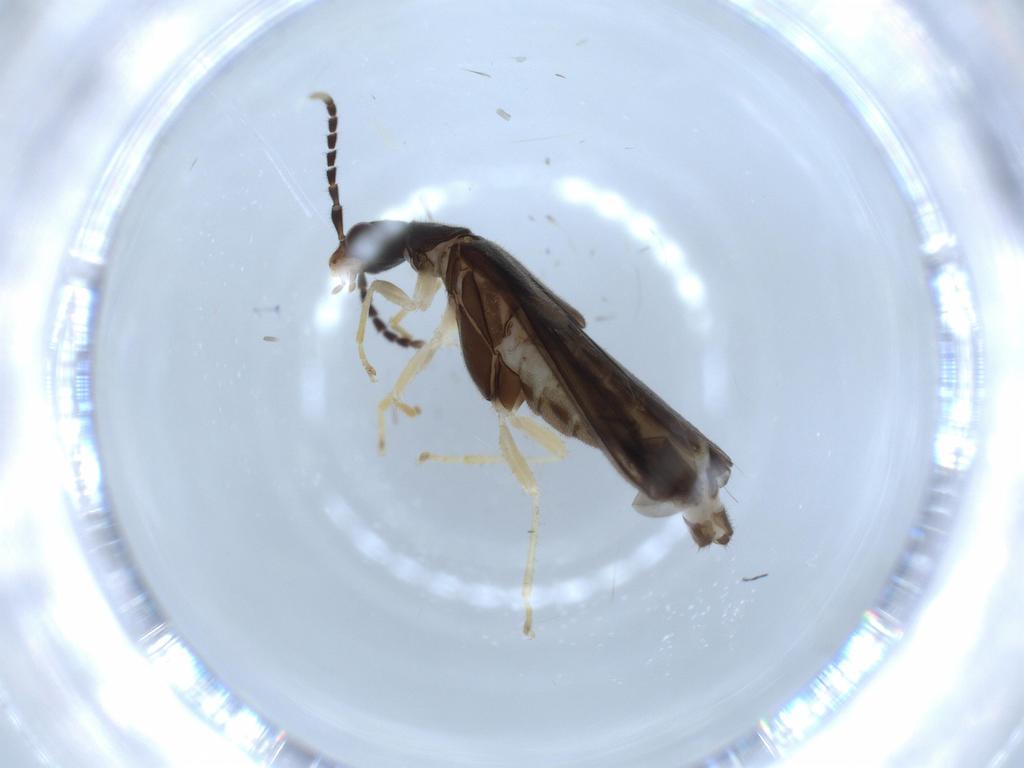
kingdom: Animalia
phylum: Arthropoda
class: Insecta
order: Coleoptera
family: Cantharidae
